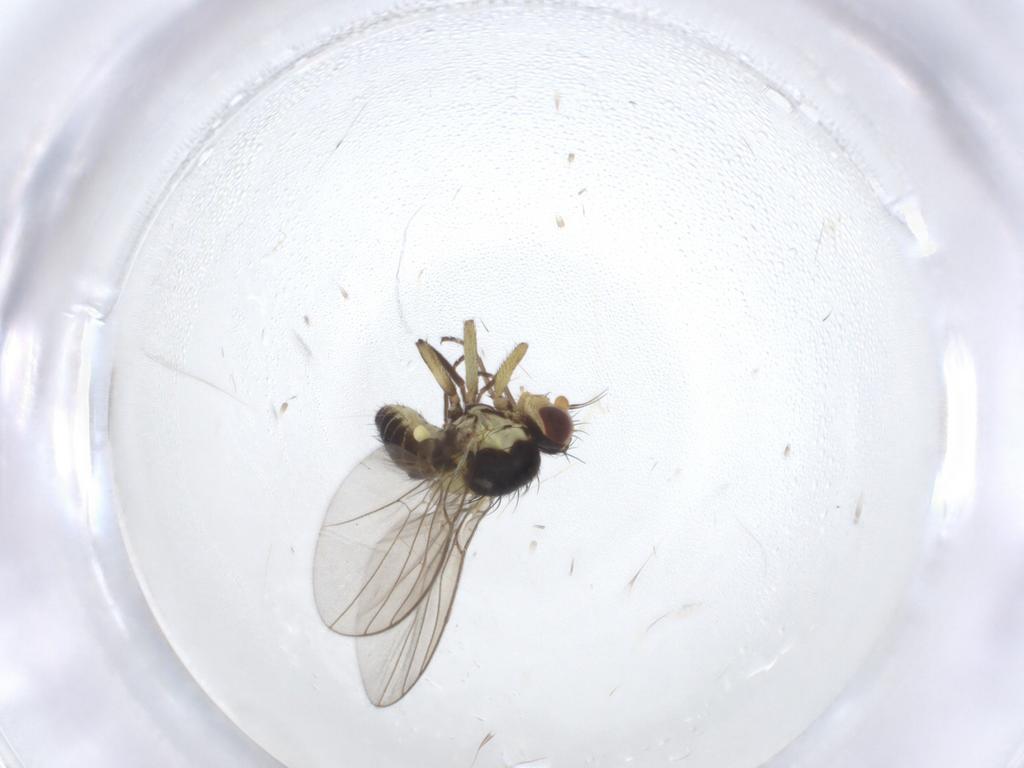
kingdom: Animalia
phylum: Arthropoda
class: Insecta
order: Diptera
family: Agromyzidae
